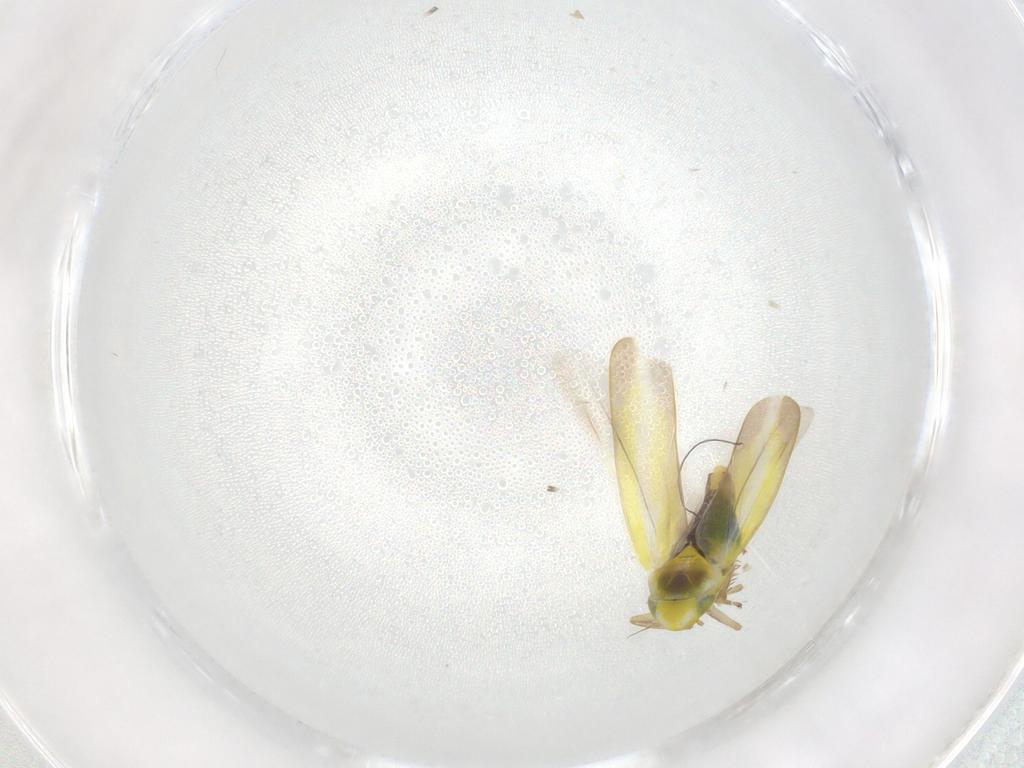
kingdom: Animalia
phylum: Arthropoda
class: Insecta
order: Hemiptera
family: Cicadellidae
